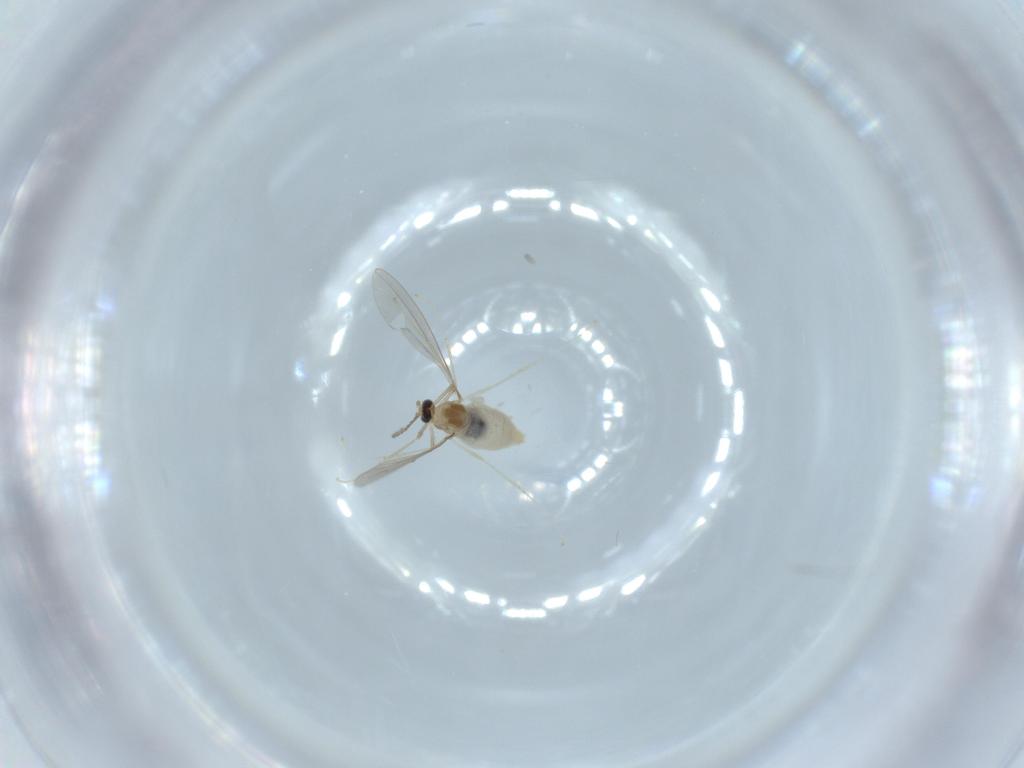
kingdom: Animalia
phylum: Arthropoda
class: Insecta
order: Diptera
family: Cecidomyiidae
